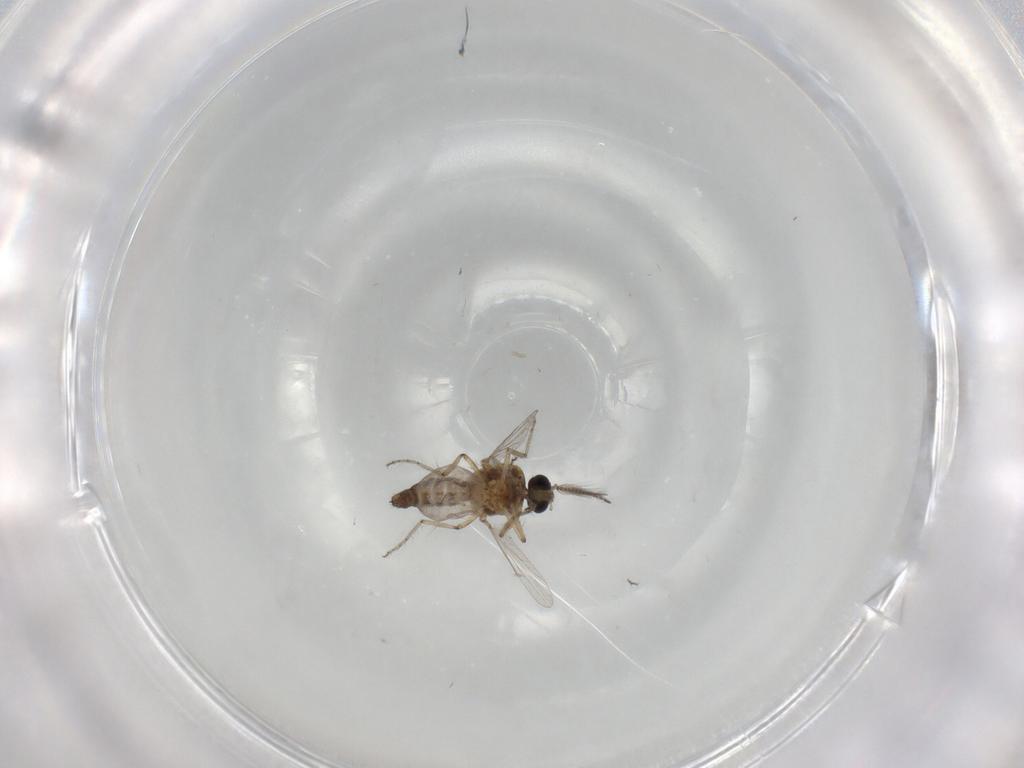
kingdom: Animalia
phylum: Arthropoda
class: Insecta
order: Diptera
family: Ceratopogonidae
